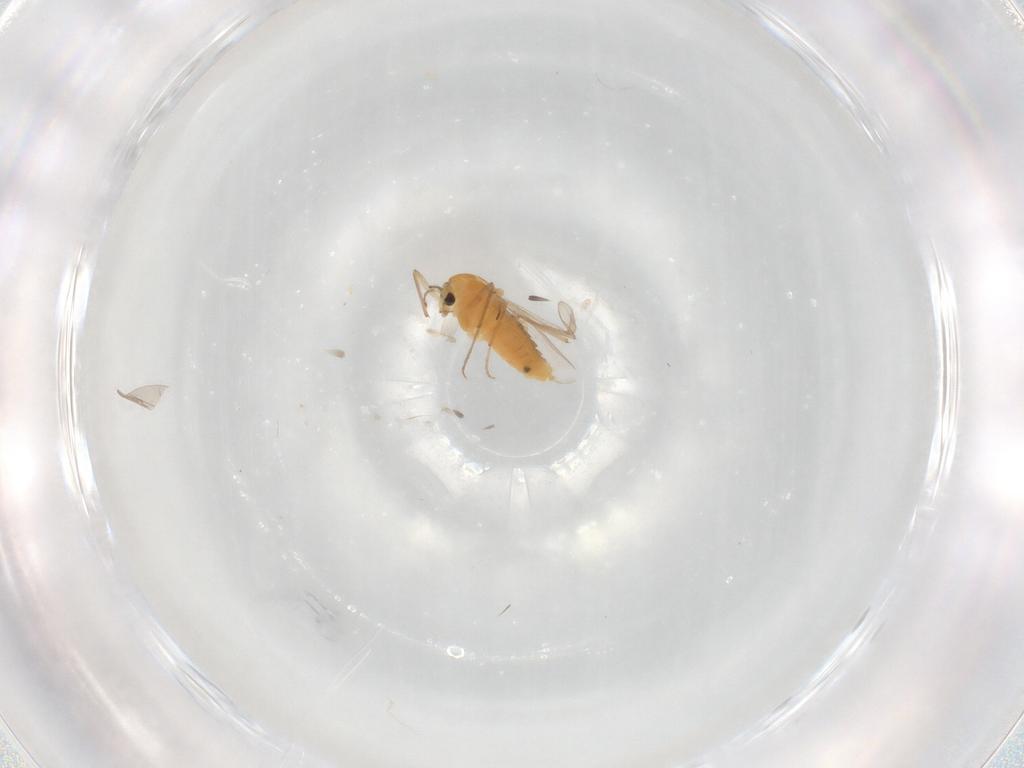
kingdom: Animalia
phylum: Arthropoda
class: Insecta
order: Diptera
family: Chironomidae
